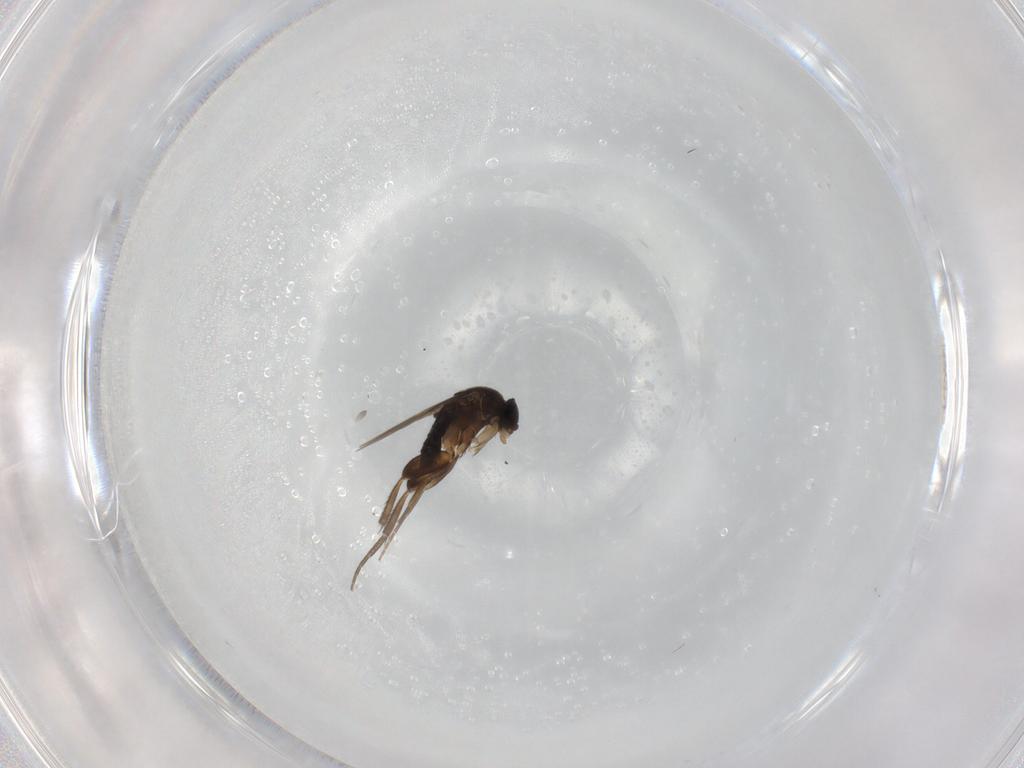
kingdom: Animalia
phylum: Arthropoda
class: Insecta
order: Diptera
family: Phoridae
